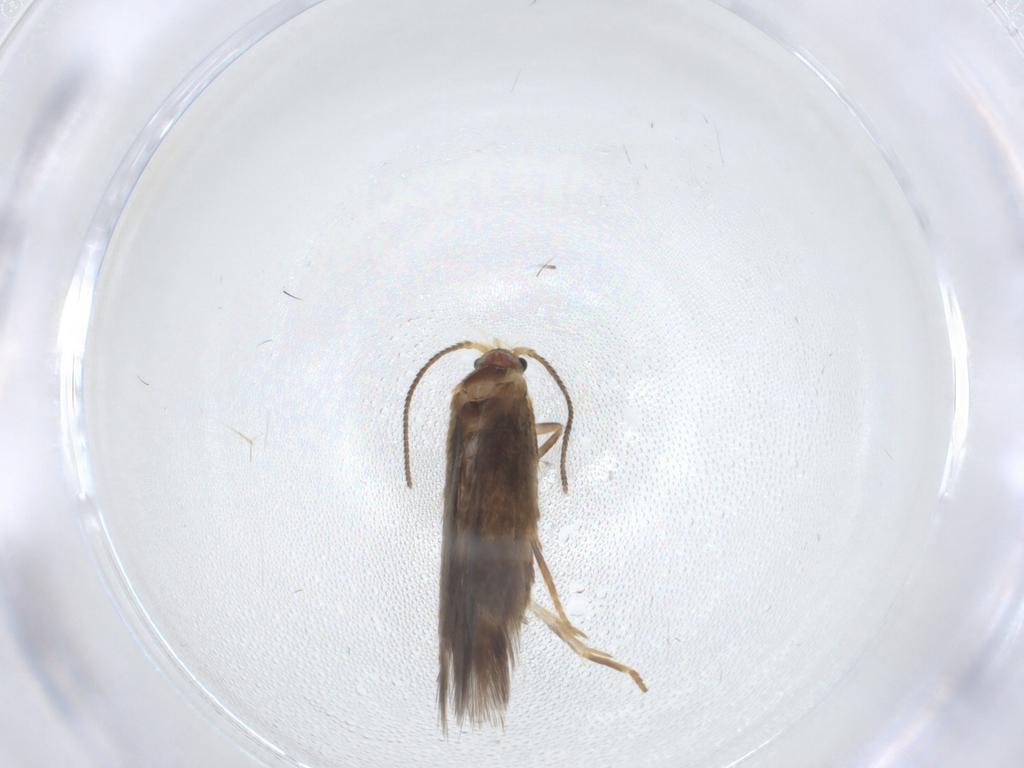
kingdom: Animalia
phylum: Arthropoda
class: Insecta
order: Lepidoptera
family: Nepticulidae
